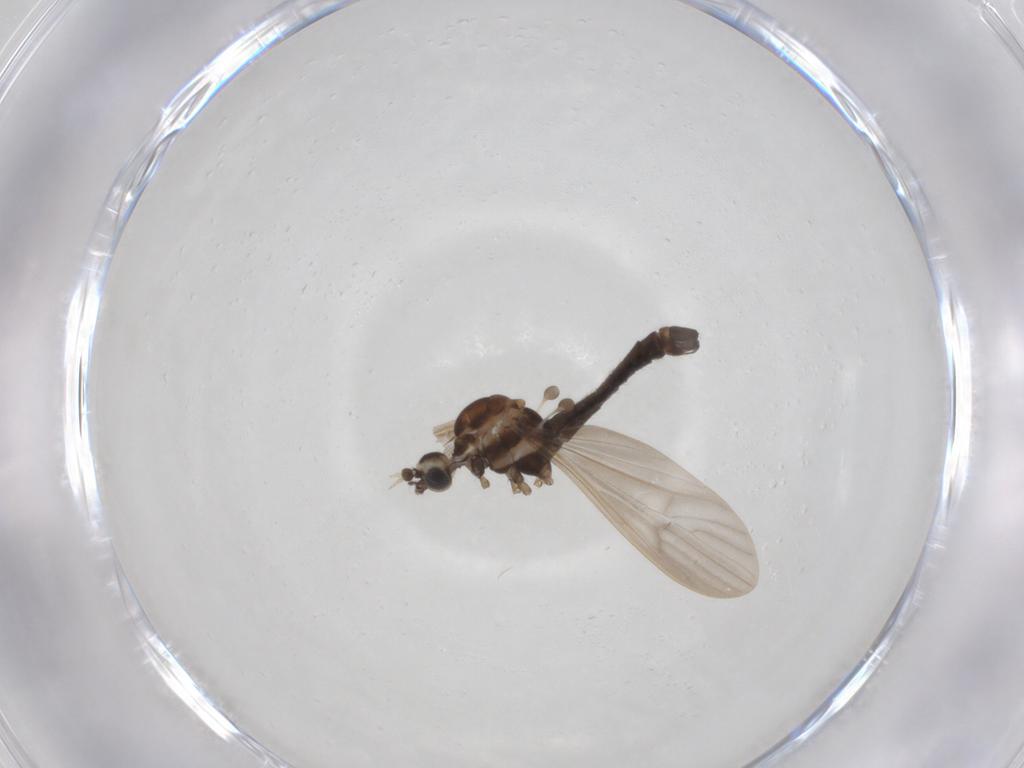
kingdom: Animalia
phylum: Arthropoda
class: Insecta
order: Diptera
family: Limoniidae
